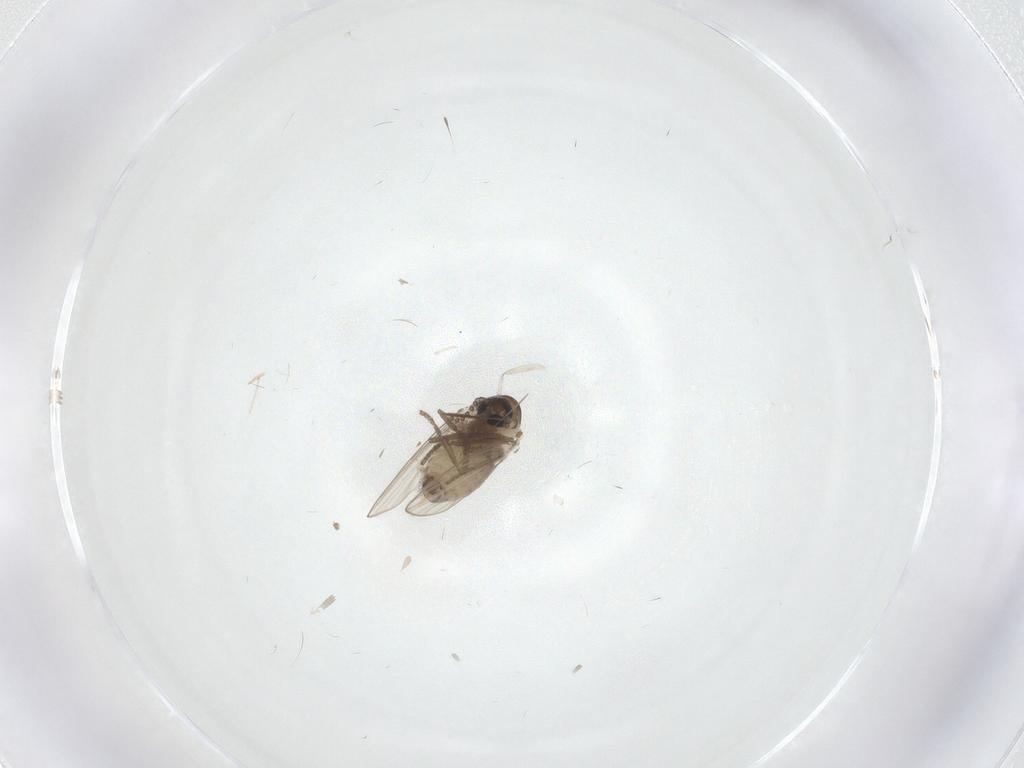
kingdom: Animalia
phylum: Arthropoda
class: Insecta
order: Diptera
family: Psychodidae
